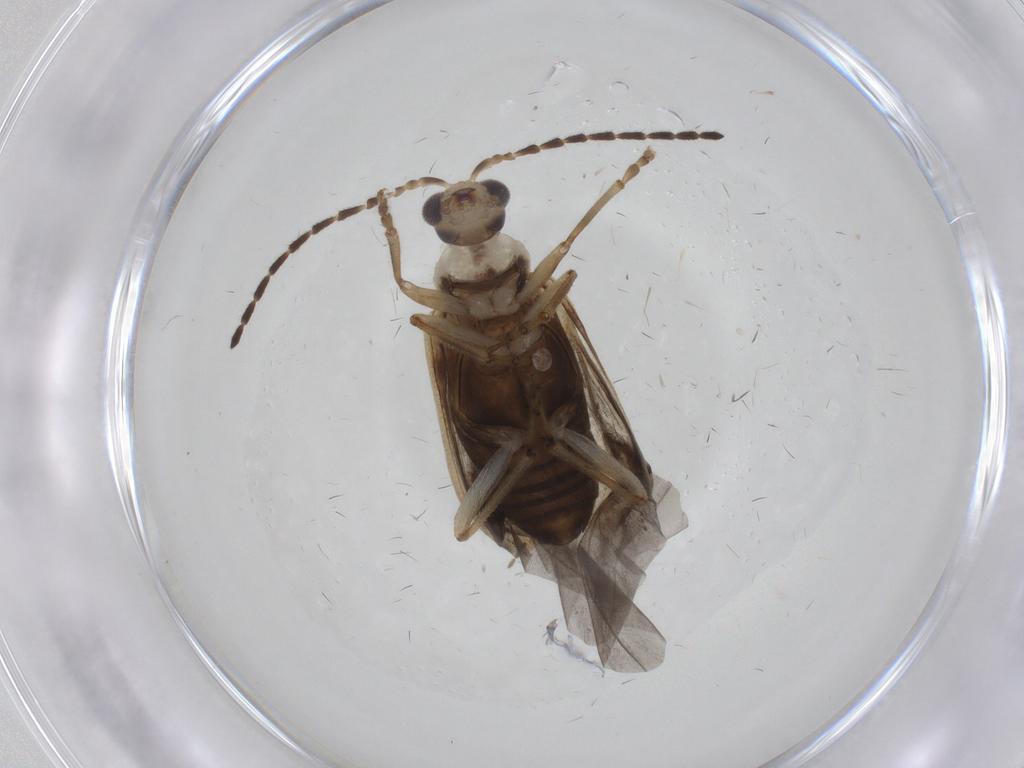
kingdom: Animalia
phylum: Arthropoda
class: Insecta
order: Coleoptera
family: Chrysomelidae
